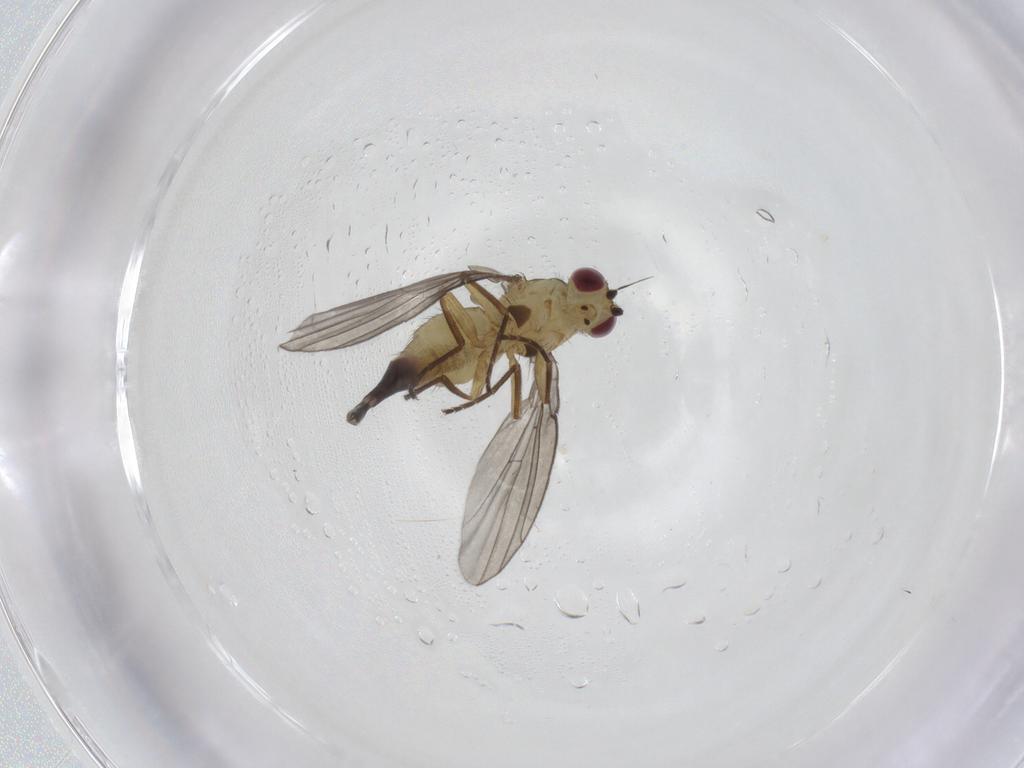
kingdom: Animalia
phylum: Arthropoda
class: Insecta
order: Diptera
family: Agromyzidae
